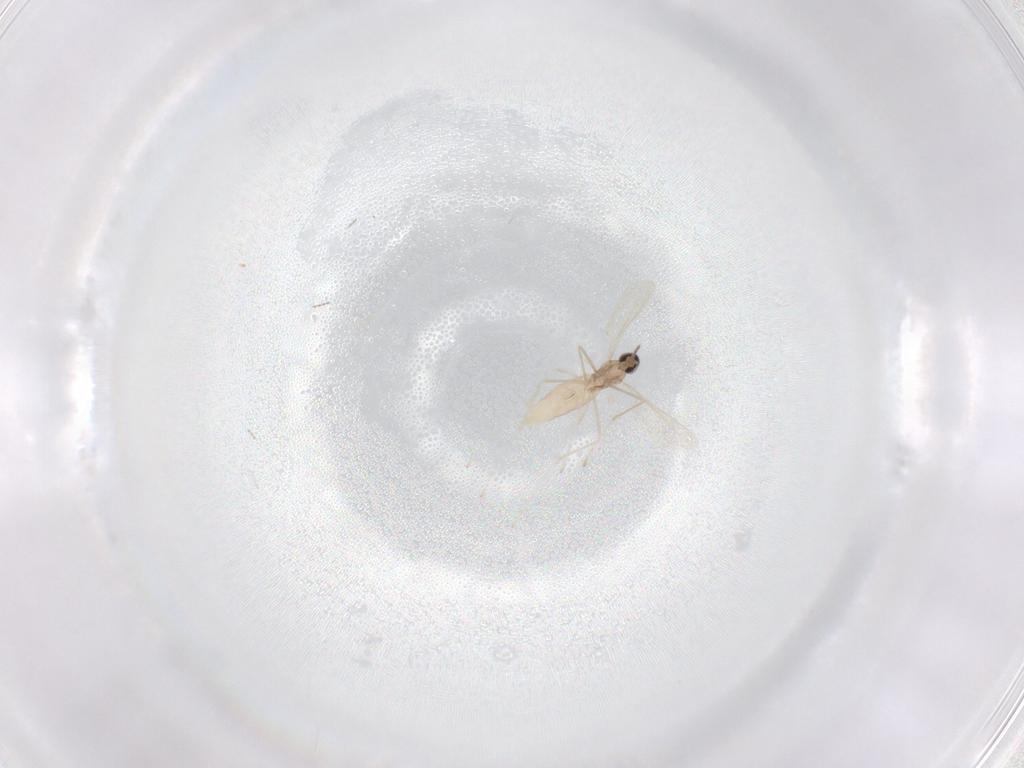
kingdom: Animalia
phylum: Arthropoda
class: Insecta
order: Diptera
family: Cecidomyiidae
